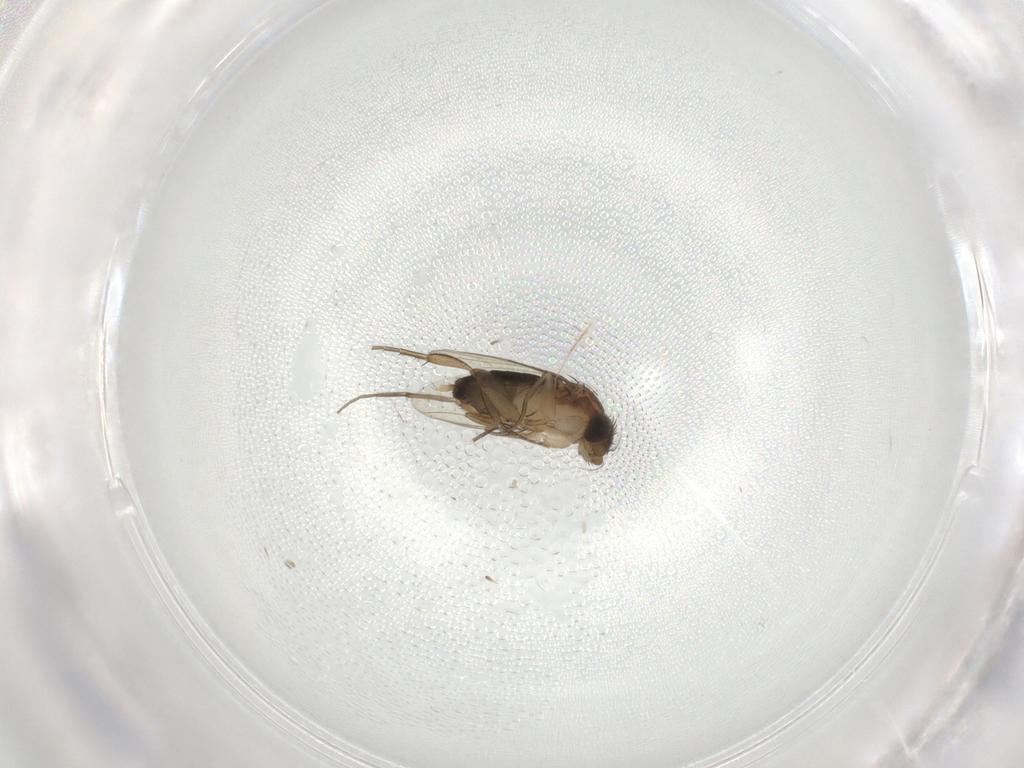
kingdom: Animalia
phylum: Arthropoda
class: Insecta
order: Diptera
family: Phoridae
